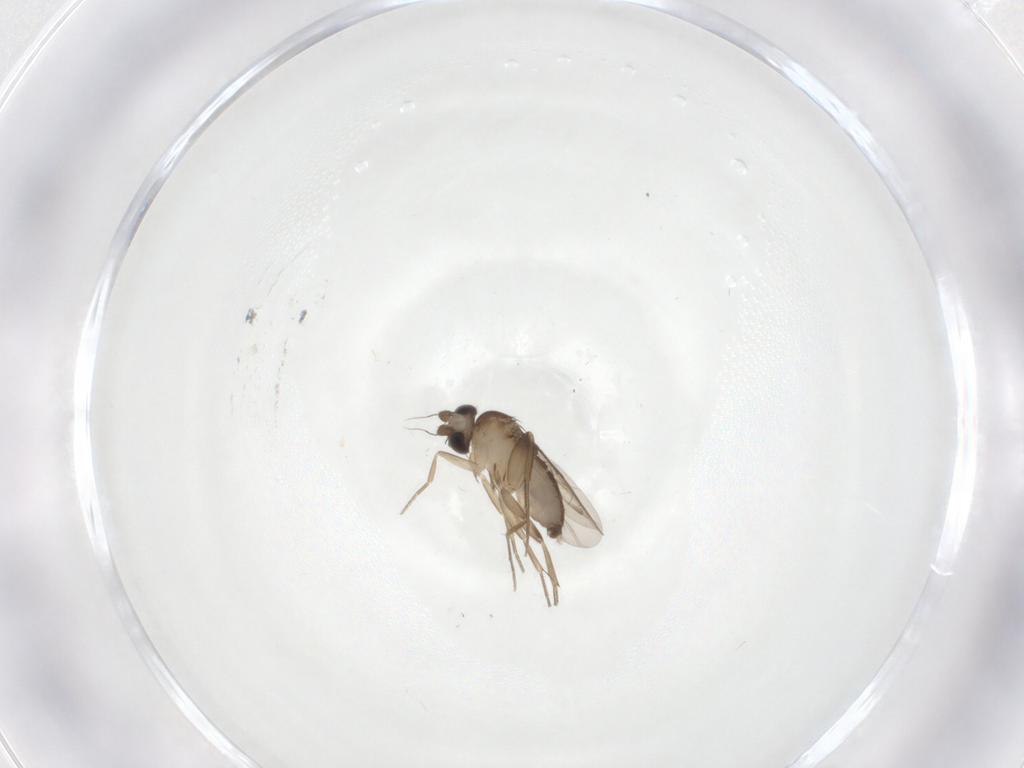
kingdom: Animalia
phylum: Arthropoda
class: Insecta
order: Diptera
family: Phoridae
